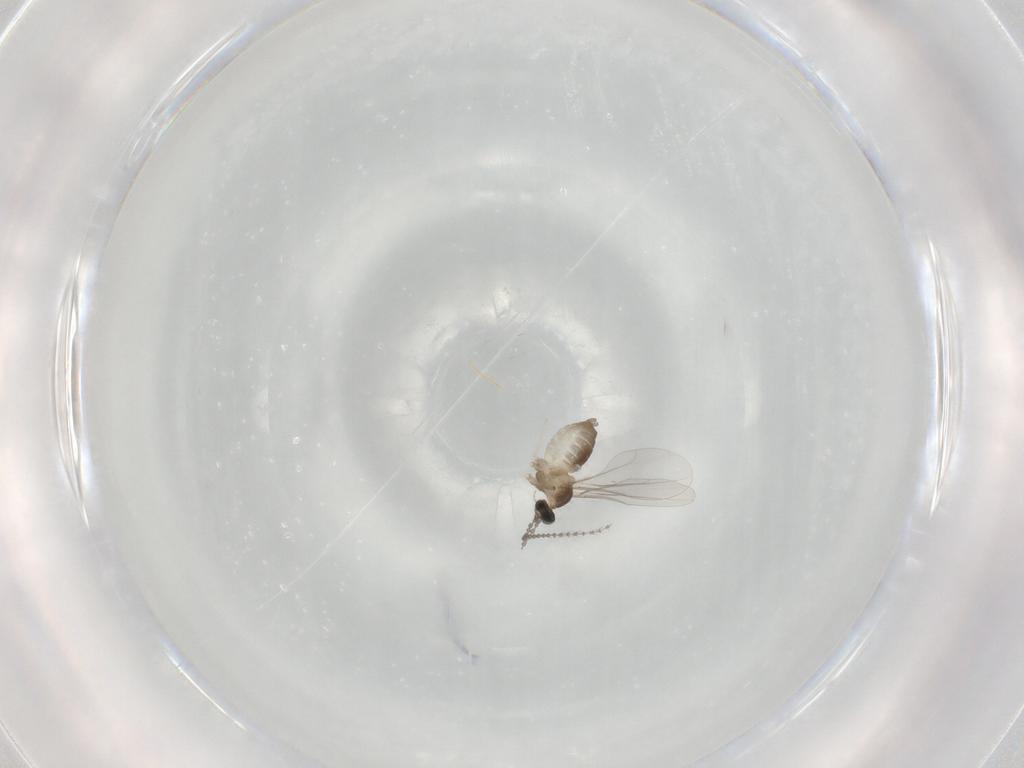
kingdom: Animalia
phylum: Arthropoda
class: Insecta
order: Diptera
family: Cecidomyiidae
